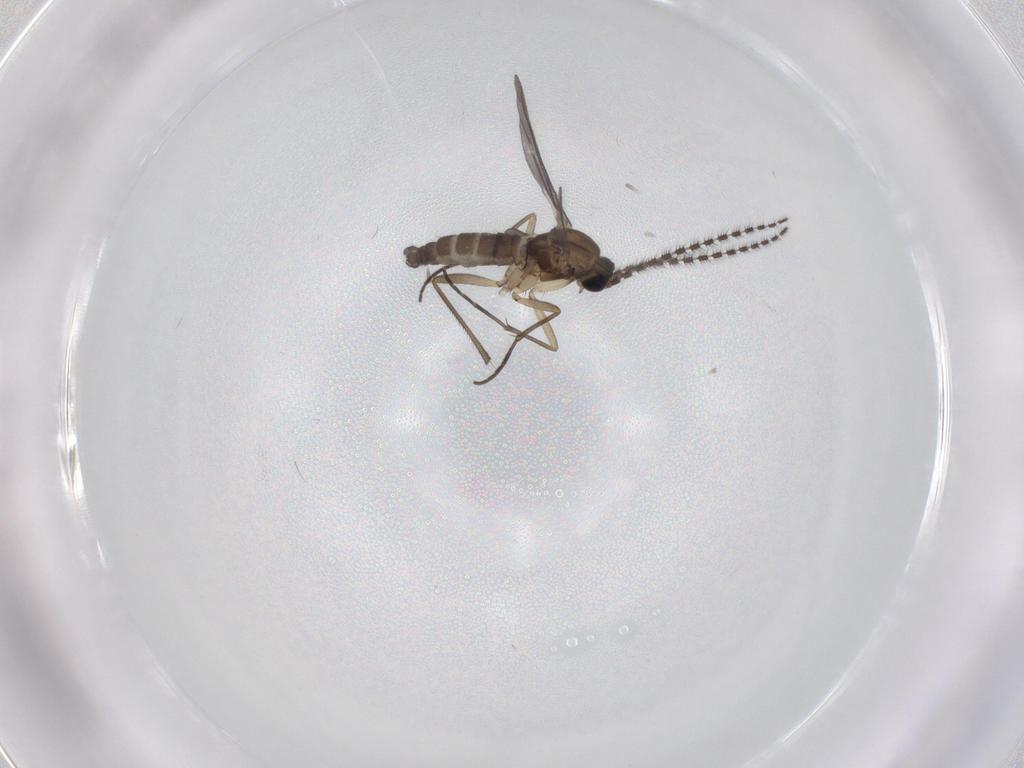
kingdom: Animalia
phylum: Arthropoda
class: Insecta
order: Diptera
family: Sciaridae
